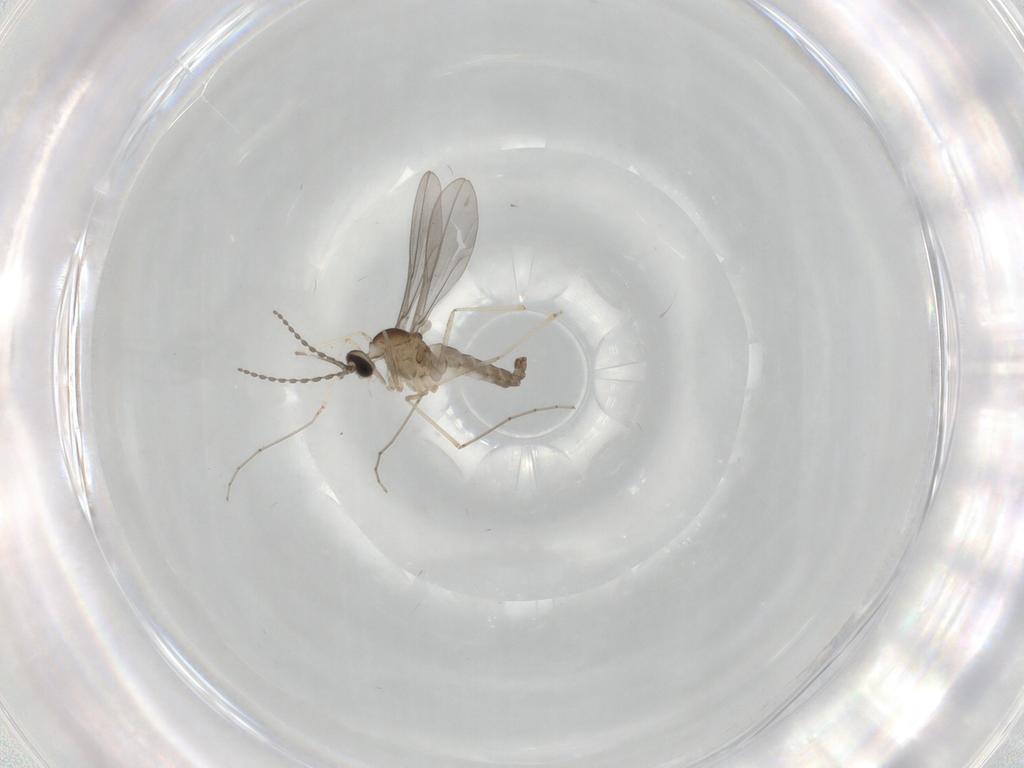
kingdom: Animalia
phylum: Arthropoda
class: Insecta
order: Diptera
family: Cecidomyiidae
